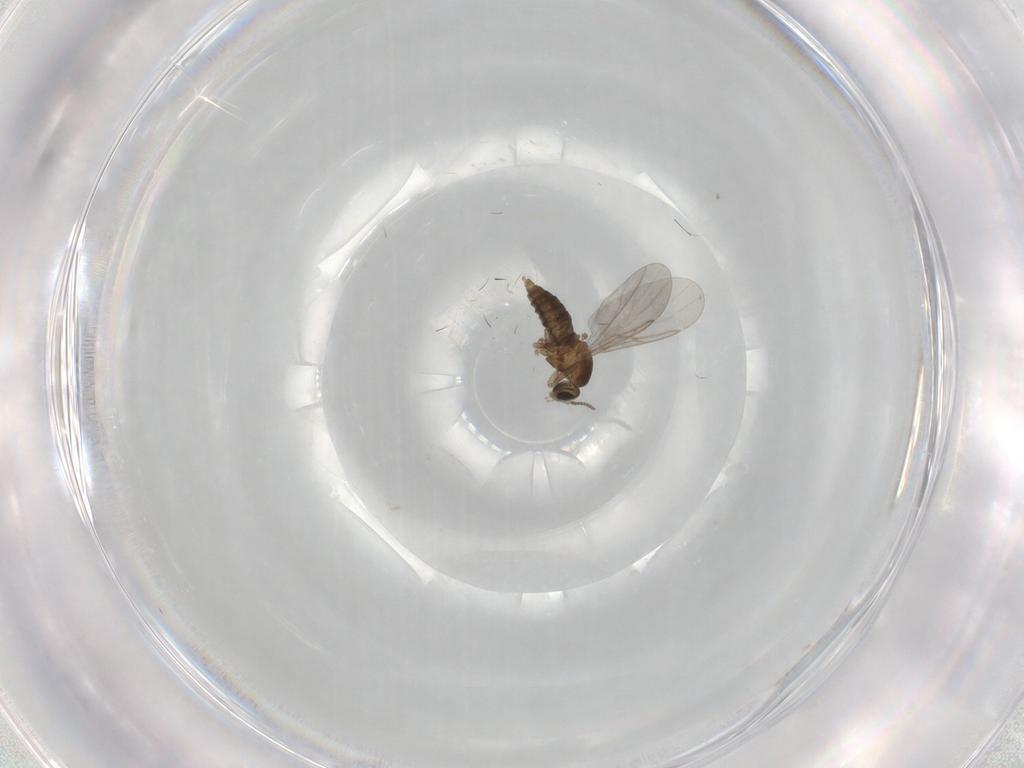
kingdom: Animalia
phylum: Arthropoda
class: Insecta
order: Diptera
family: Cecidomyiidae
